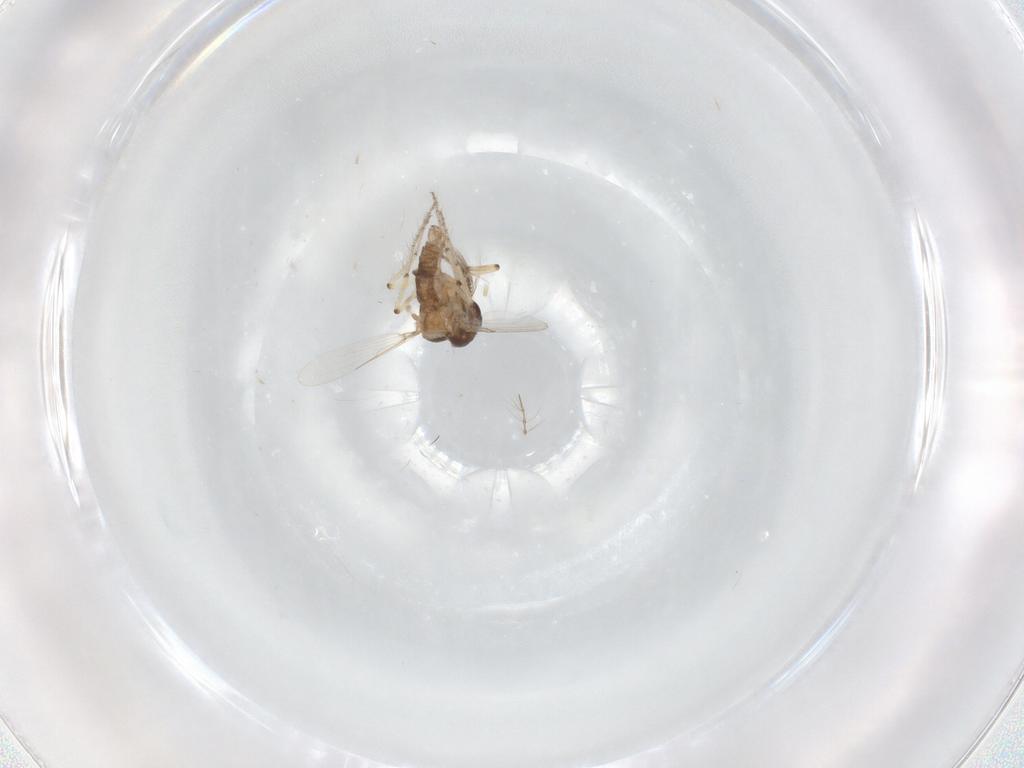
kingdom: Animalia
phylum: Arthropoda
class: Insecta
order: Diptera
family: Ceratopogonidae
